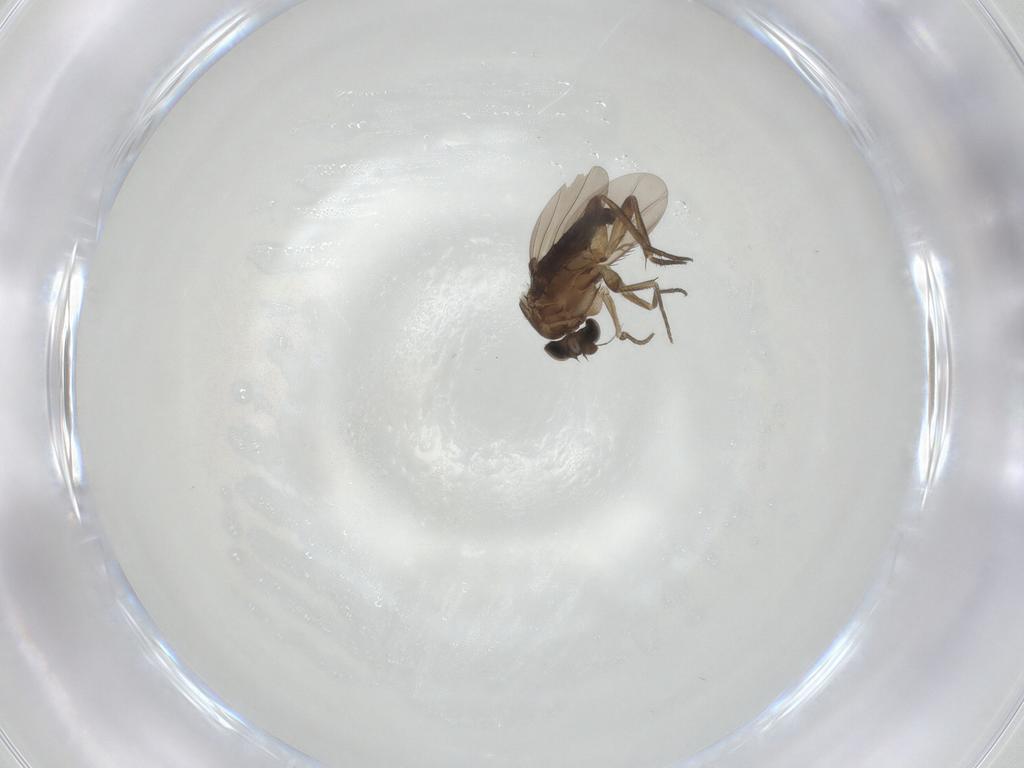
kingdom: Animalia
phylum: Arthropoda
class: Insecta
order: Diptera
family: Phoridae
